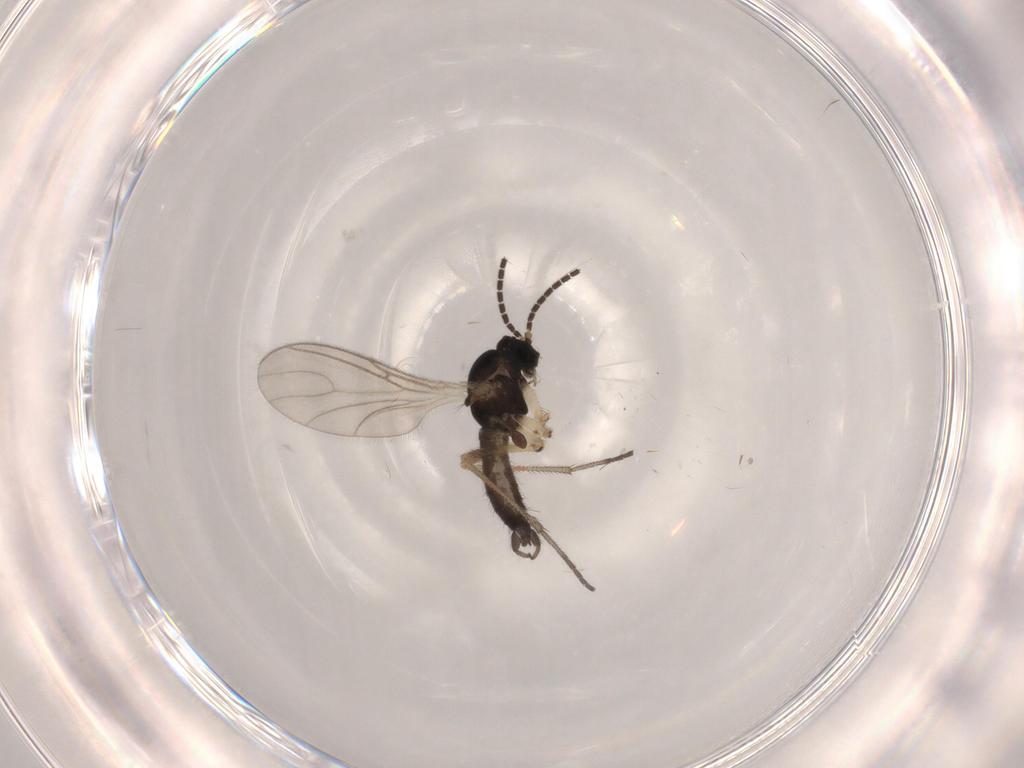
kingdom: Animalia
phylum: Arthropoda
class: Insecta
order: Diptera
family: Sciaridae
